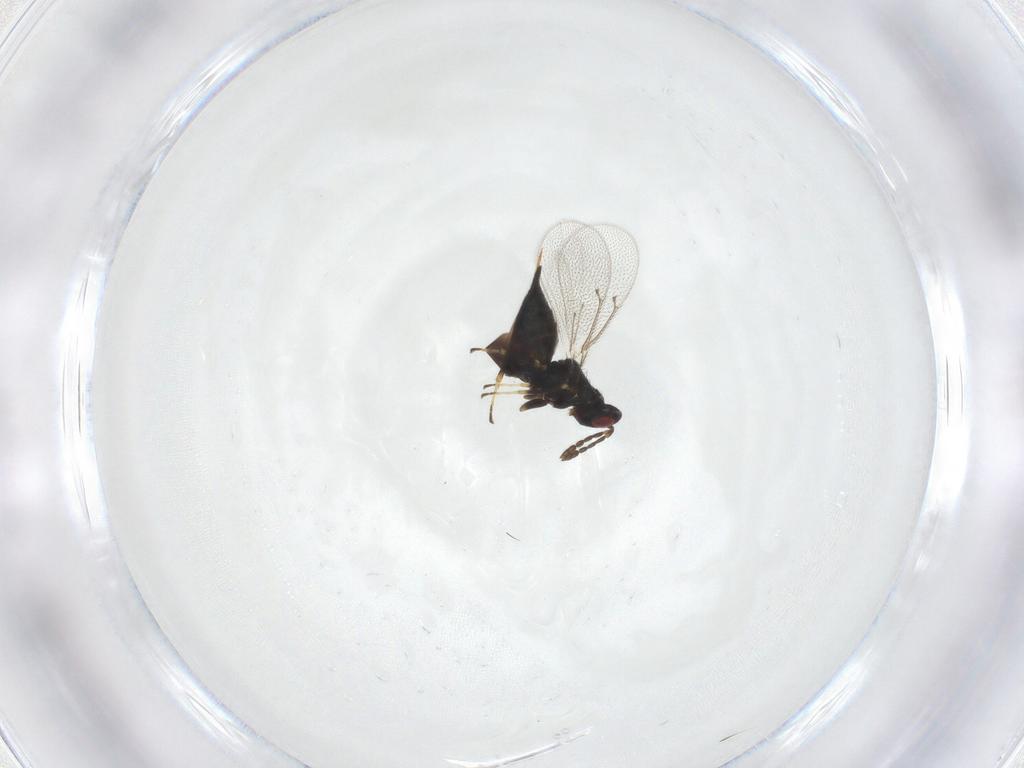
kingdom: Animalia
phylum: Arthropoda
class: Insecta
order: Hymenoptera
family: Eulophidae
